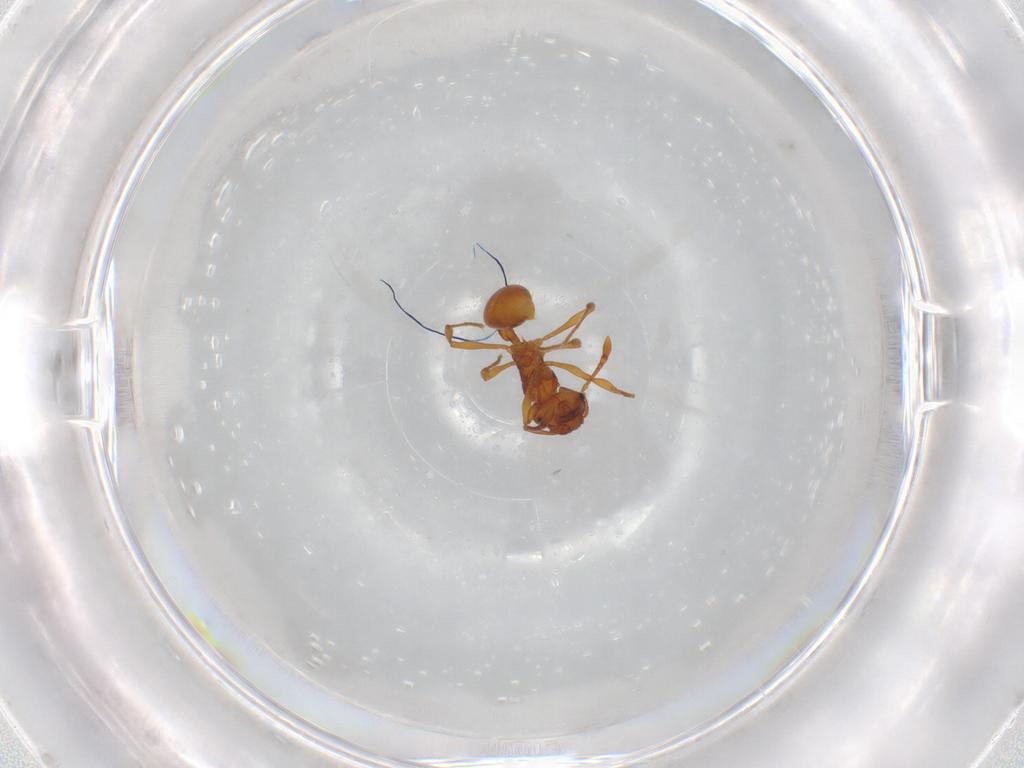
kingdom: Animalia
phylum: Arthropoda
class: Insecta
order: Hymenoptera
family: Formicidae
